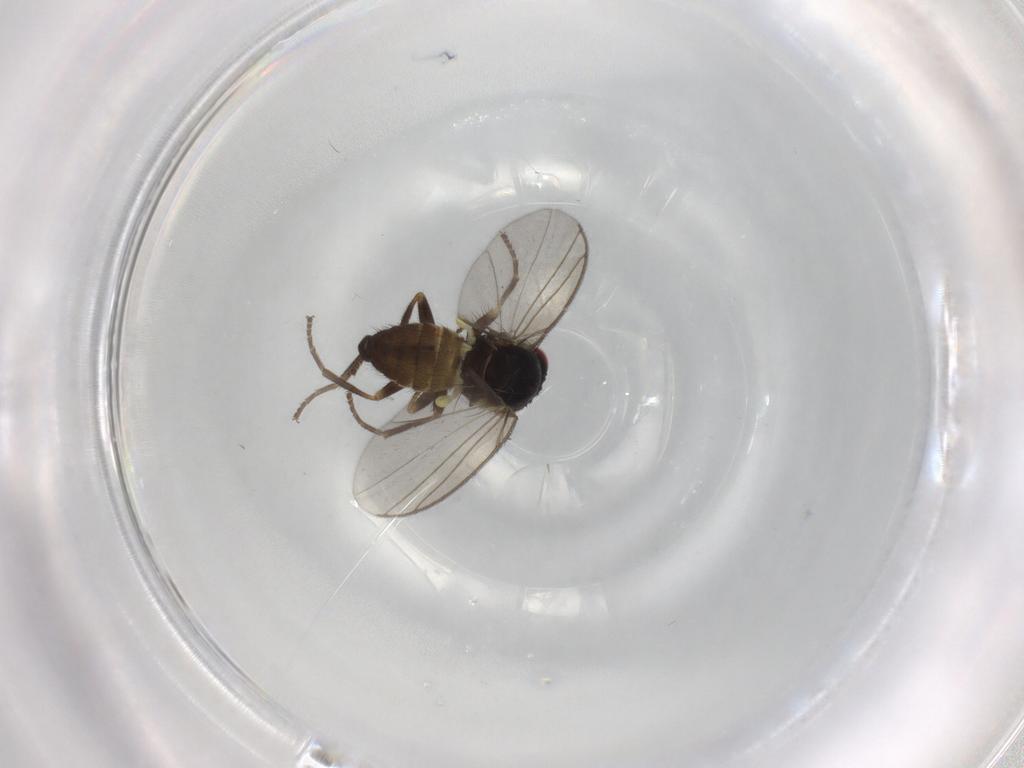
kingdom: Animalia
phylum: Arthropoda
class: Insecta
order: Diptera
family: Agromyzidae
